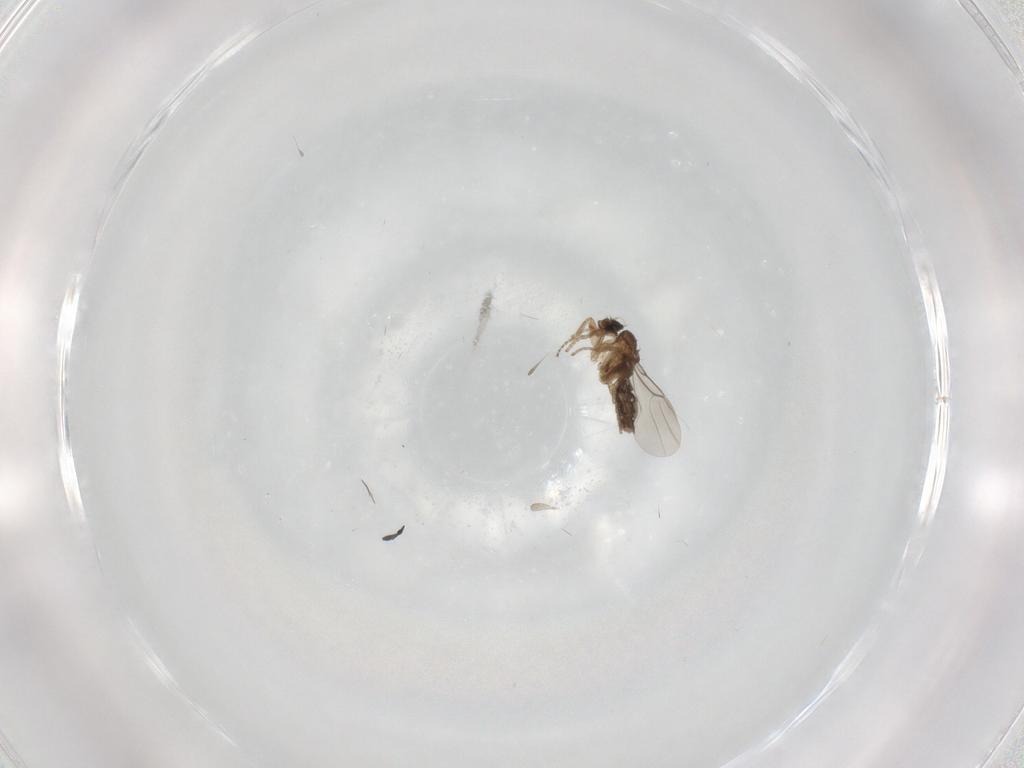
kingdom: Animalia
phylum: Arthropoda
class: Insecta
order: Diptera
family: Phoridae
